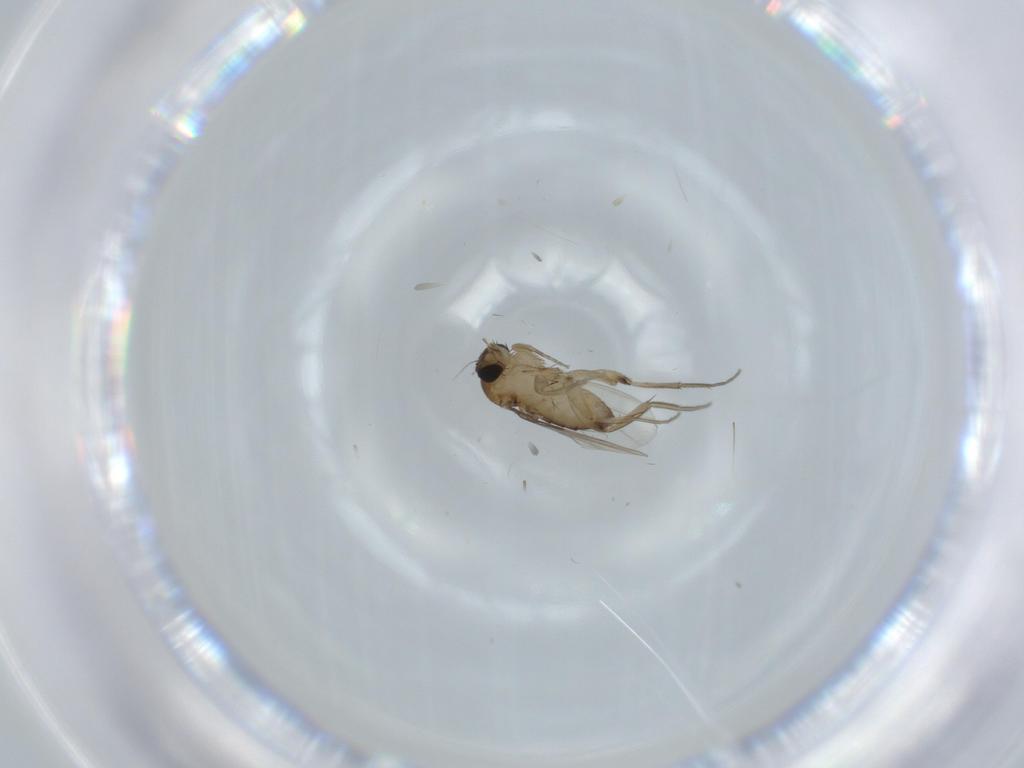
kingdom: Animalia
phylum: Arthropoda
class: Insecta
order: Diptera
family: Phoridae
